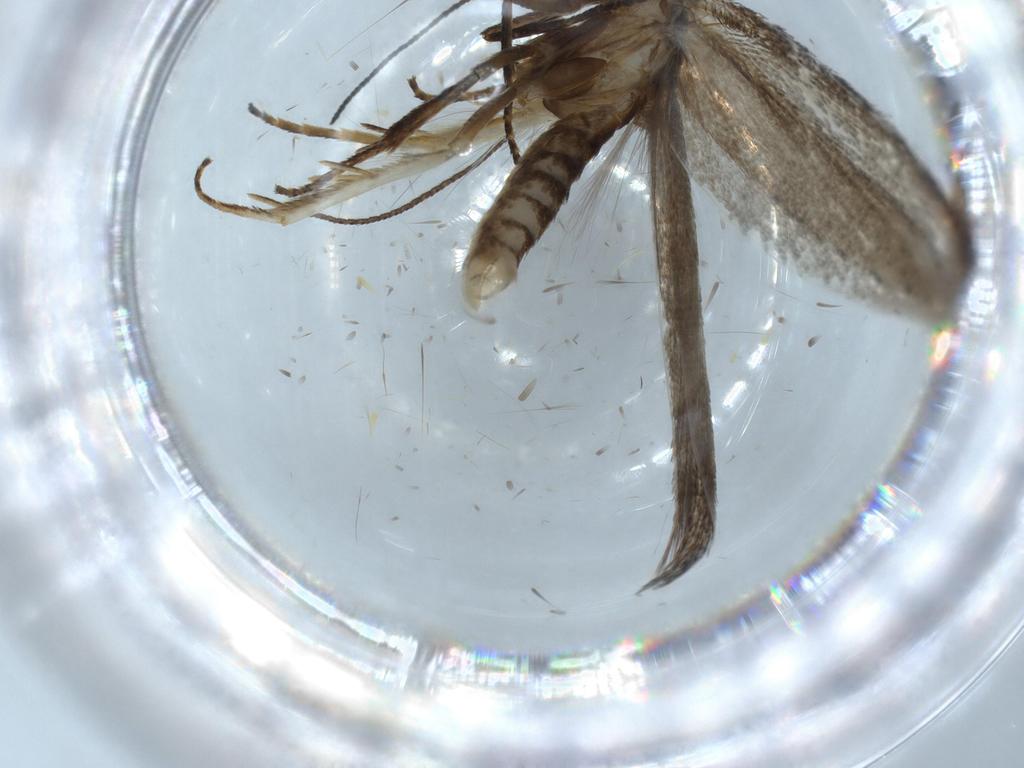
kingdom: Animalia
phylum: Arthropoda
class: Insecta
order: Lepidoptera
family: Oecophoridae
